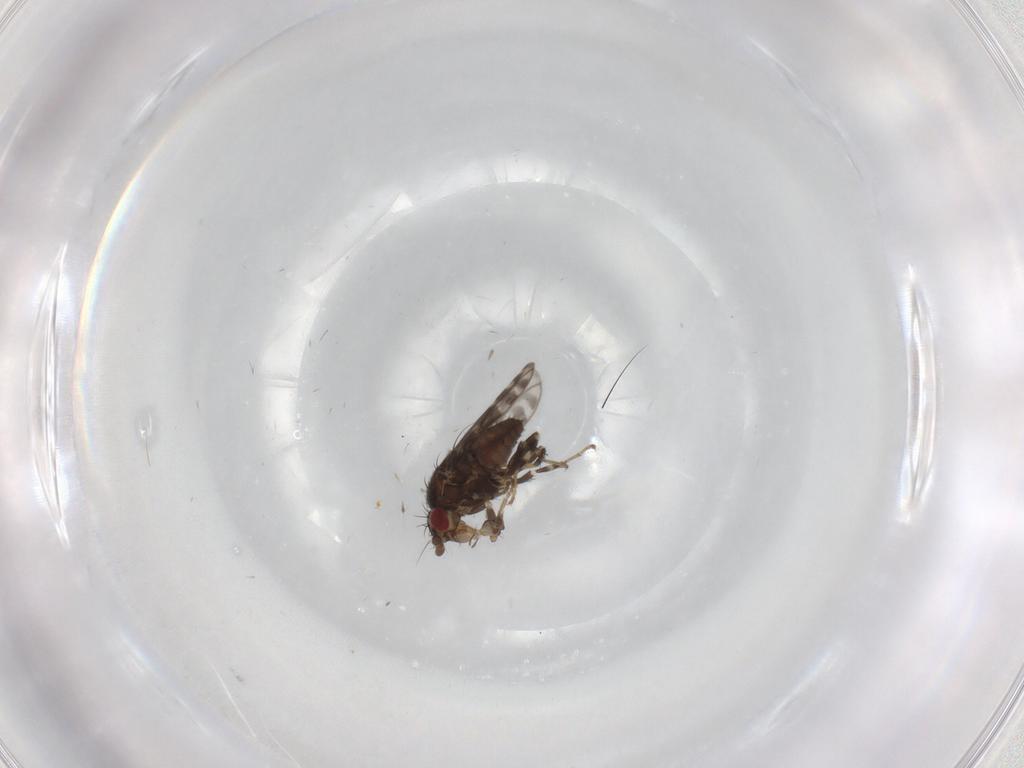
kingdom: Animalia
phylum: Arthropoda
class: Insecta
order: Diptera
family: Sphaeroceridae
